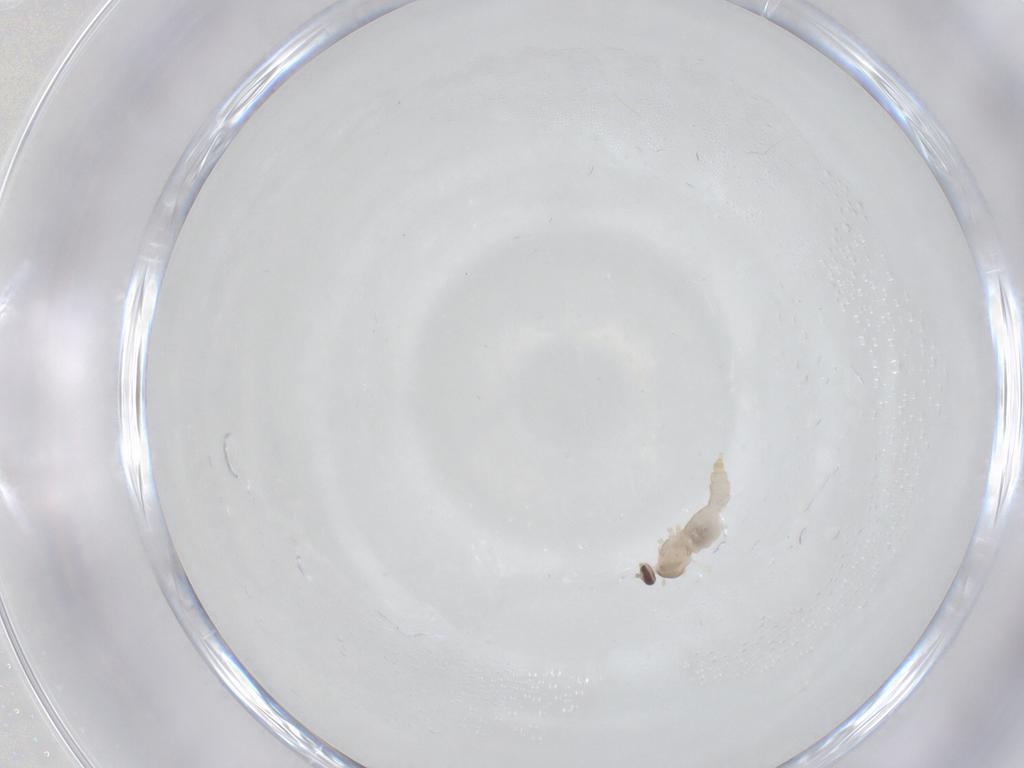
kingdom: Animalia
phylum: Arthropoda
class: Insecta
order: Diptera
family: Cecidomyiidae
